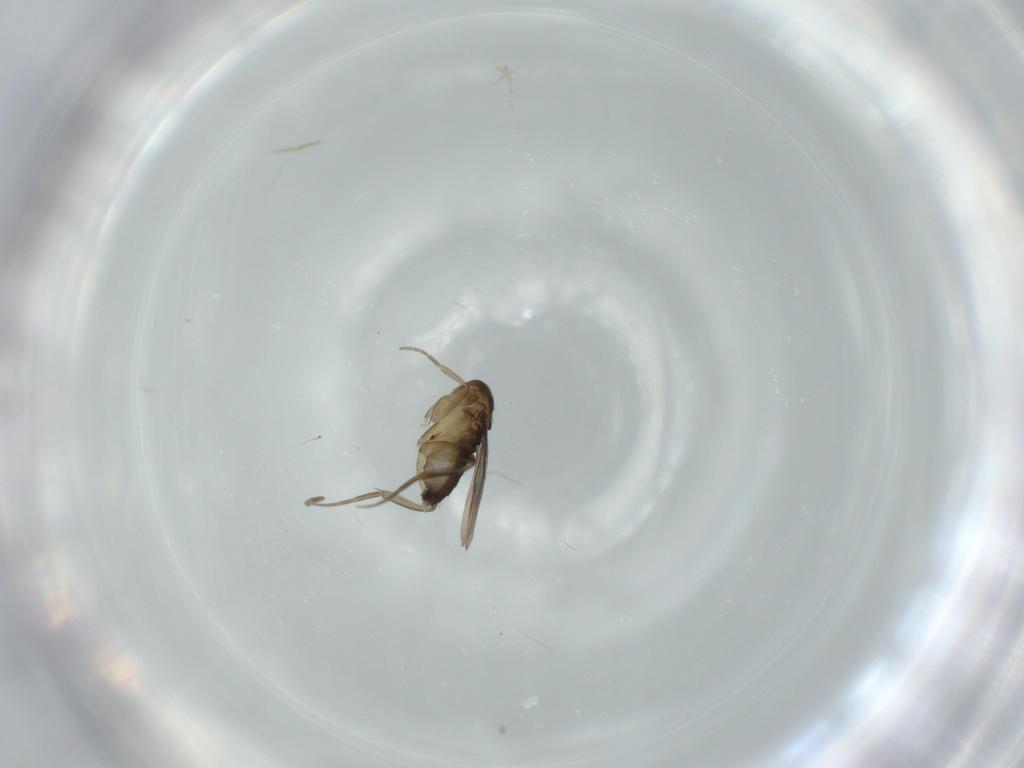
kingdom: Animalia
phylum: Arthropoda
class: Insecta
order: Diptera
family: Phoridae
